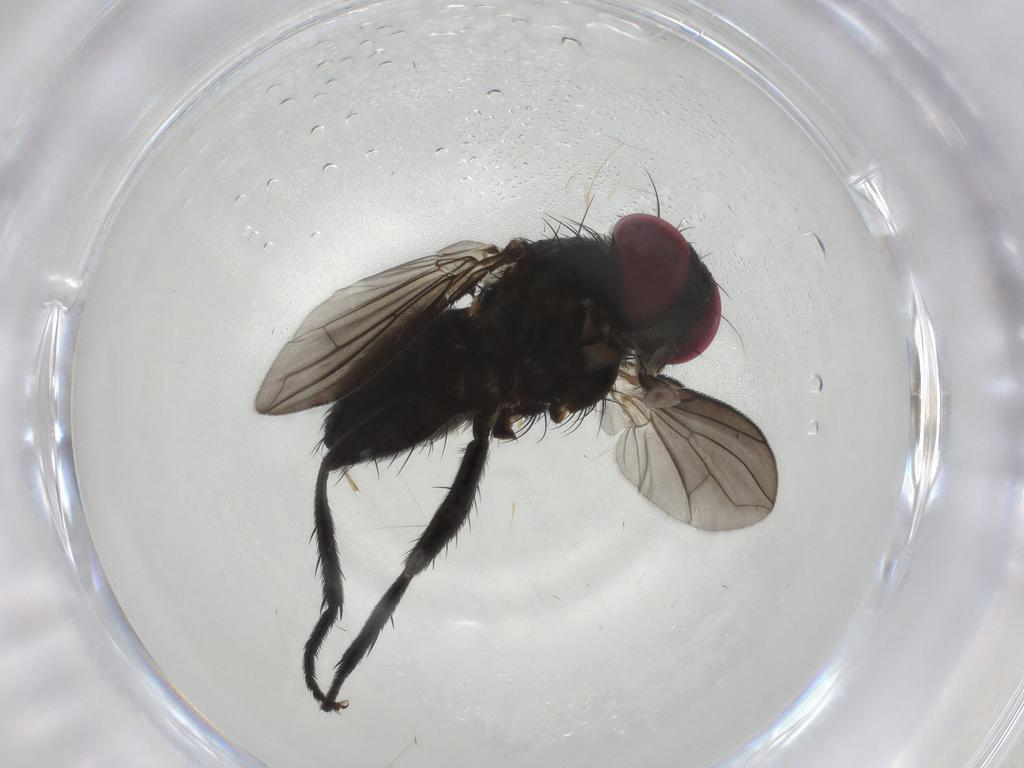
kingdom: Animalia
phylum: Arthropoda
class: Insecta
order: Diptera
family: Calliphoridae
